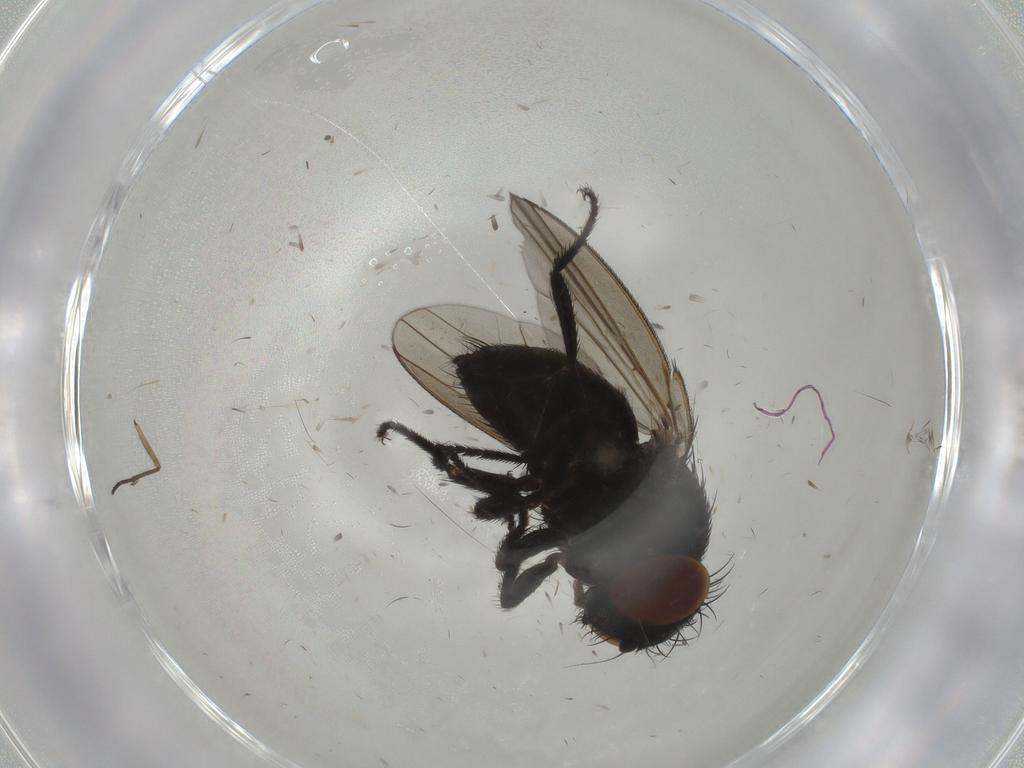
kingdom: Animalia
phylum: Arthropoda
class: Insecta
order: Diptera
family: Milichiidae
